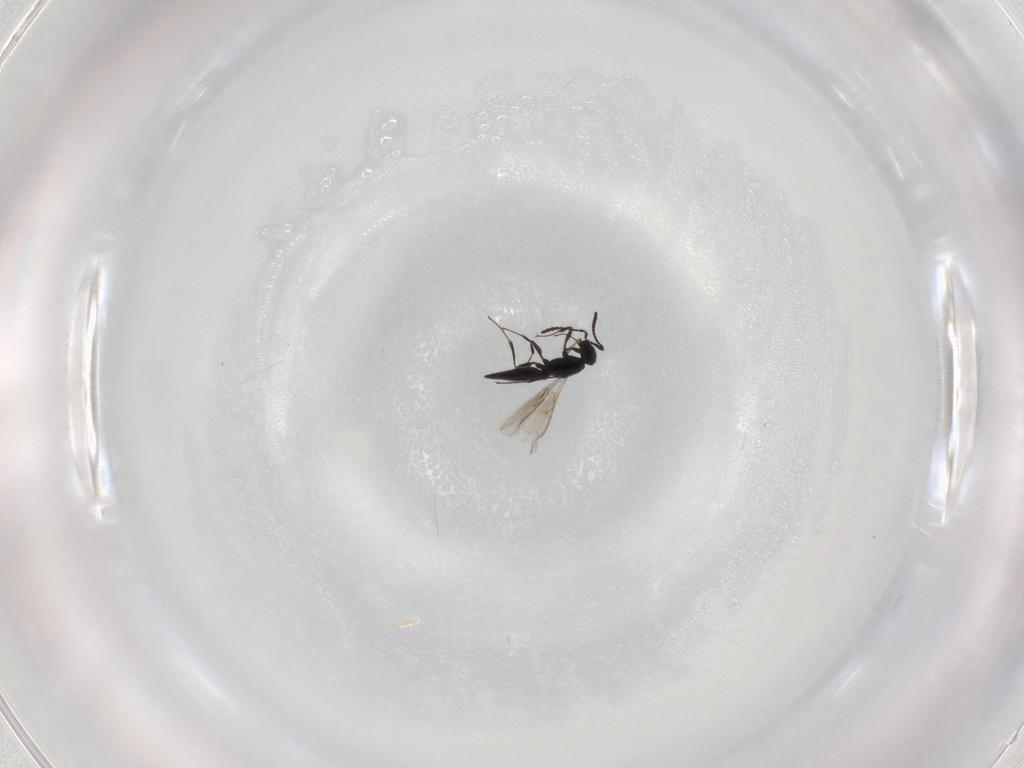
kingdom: Animalia
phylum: Arthropoda
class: Insecta
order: Hymenoptera
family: Scelionidae
